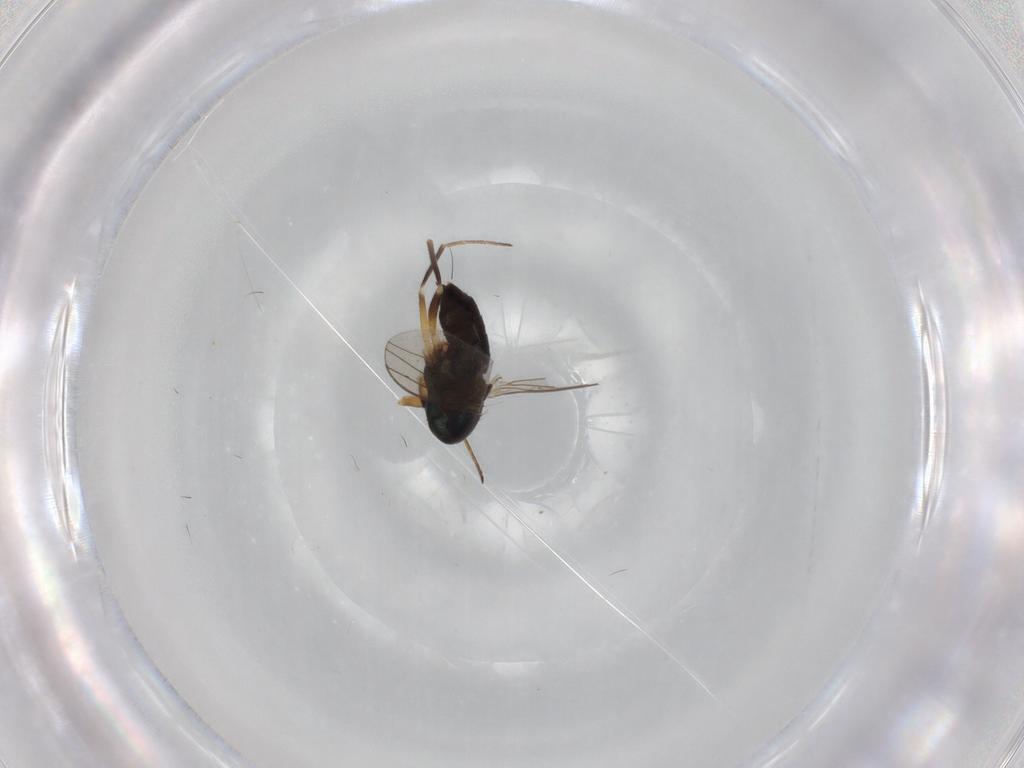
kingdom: Animalia
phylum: Arthropoda
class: Insecta
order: Diptera
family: Dolichopodidae
